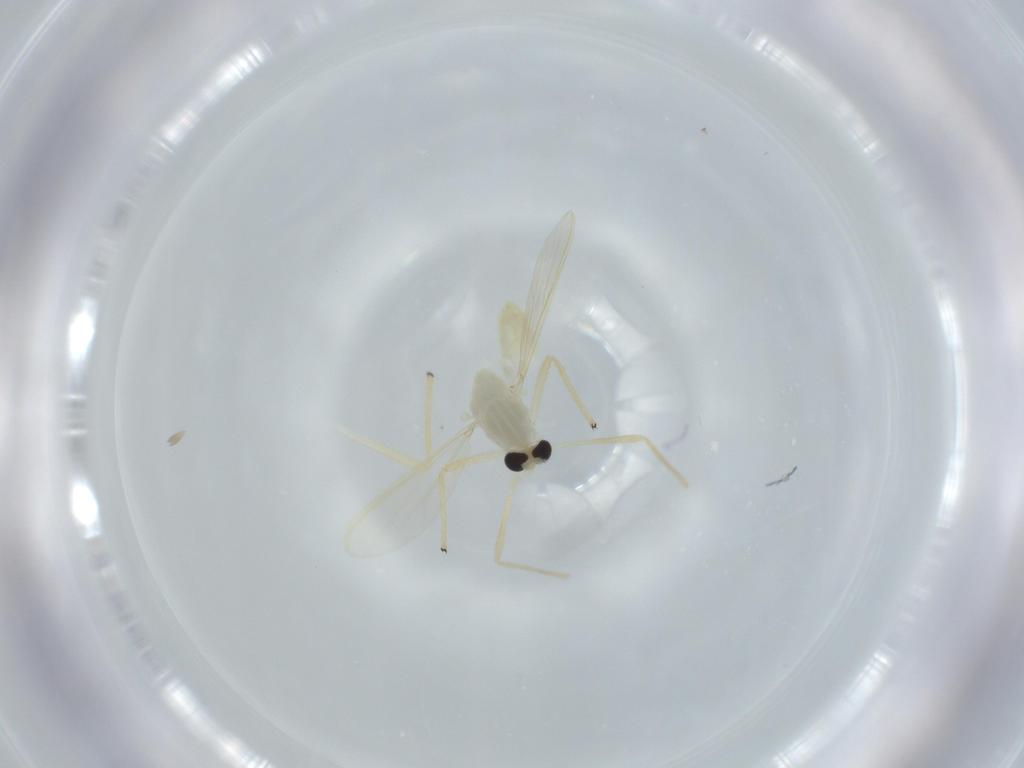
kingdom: Animalia
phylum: Arthropoda
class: Insecta
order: Diptera
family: Chironomidae
